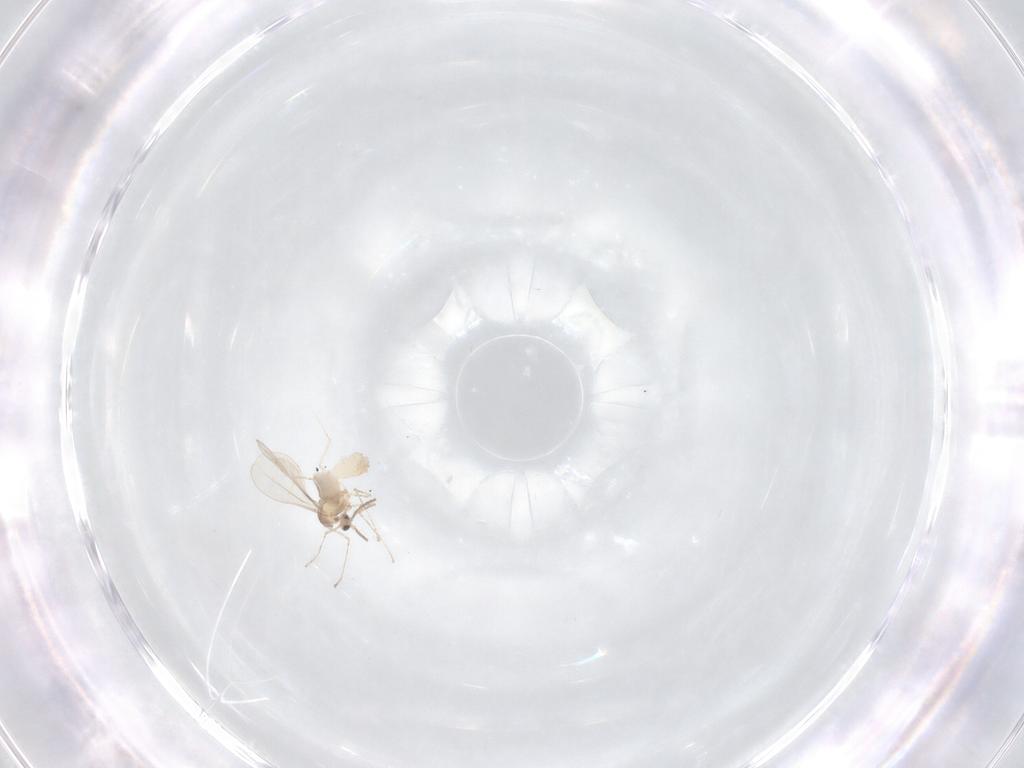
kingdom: Animalia
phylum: Arthropoda
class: Insecta
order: Diptera
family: Cecidomyiidae
